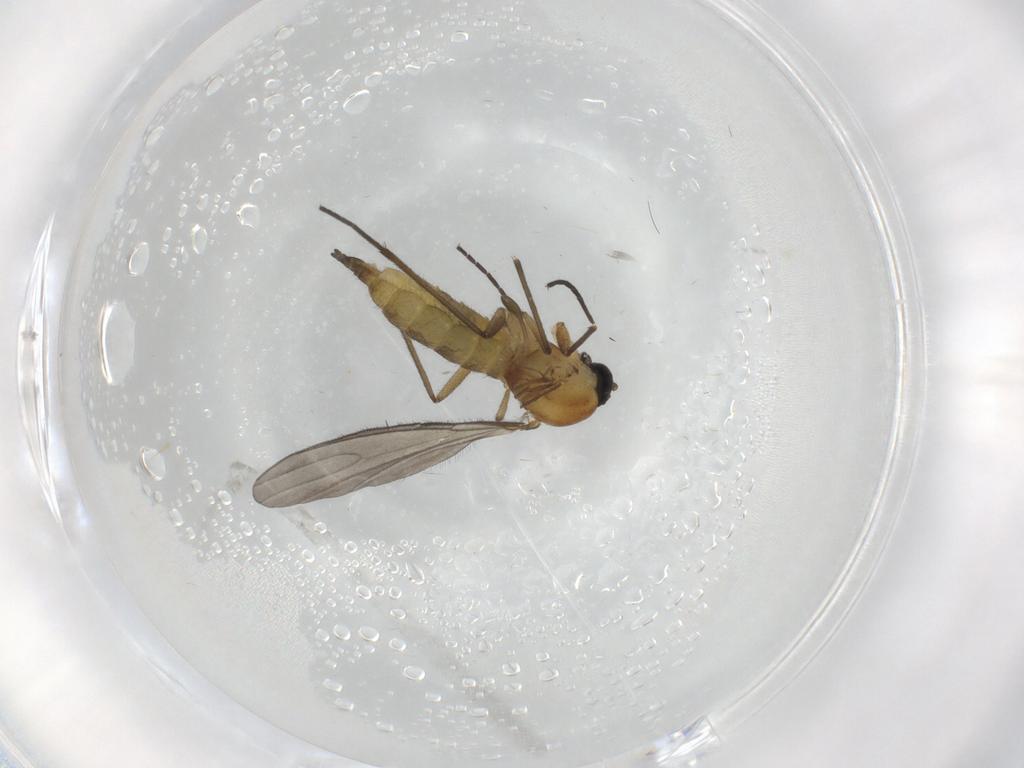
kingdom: Animalia
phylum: Arthropoda
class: Insecta
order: Diptera
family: Sciaridae
